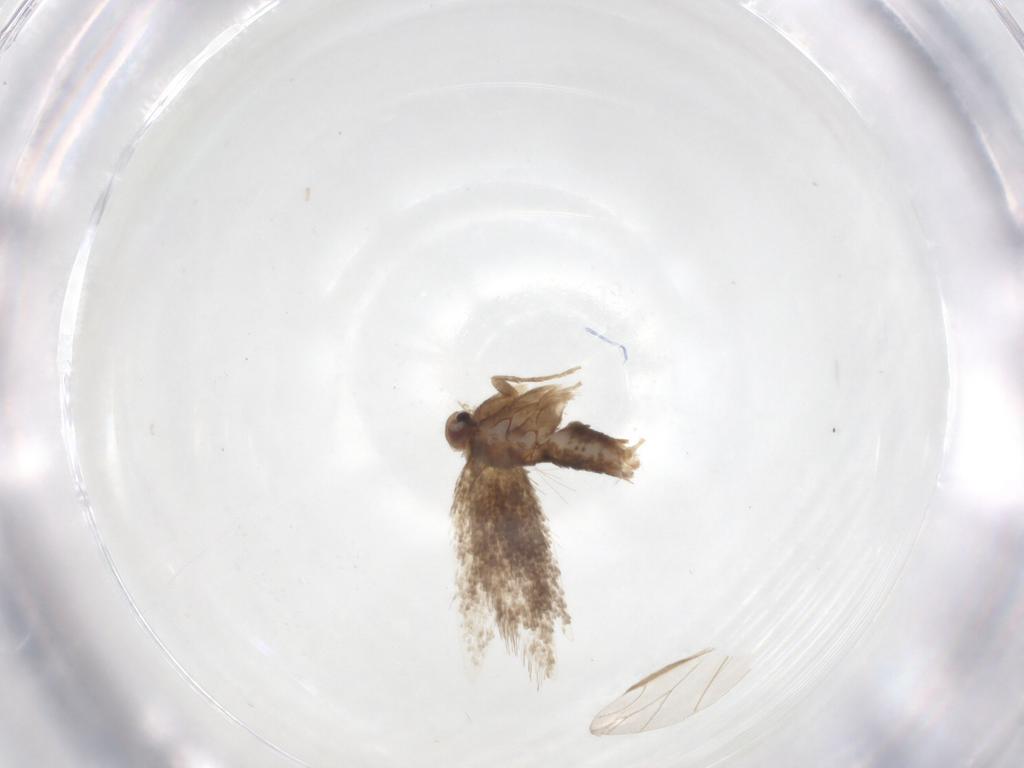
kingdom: Animalia
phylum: Arthropoda
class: Insecta
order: Lepidoptera
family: Psychidae
